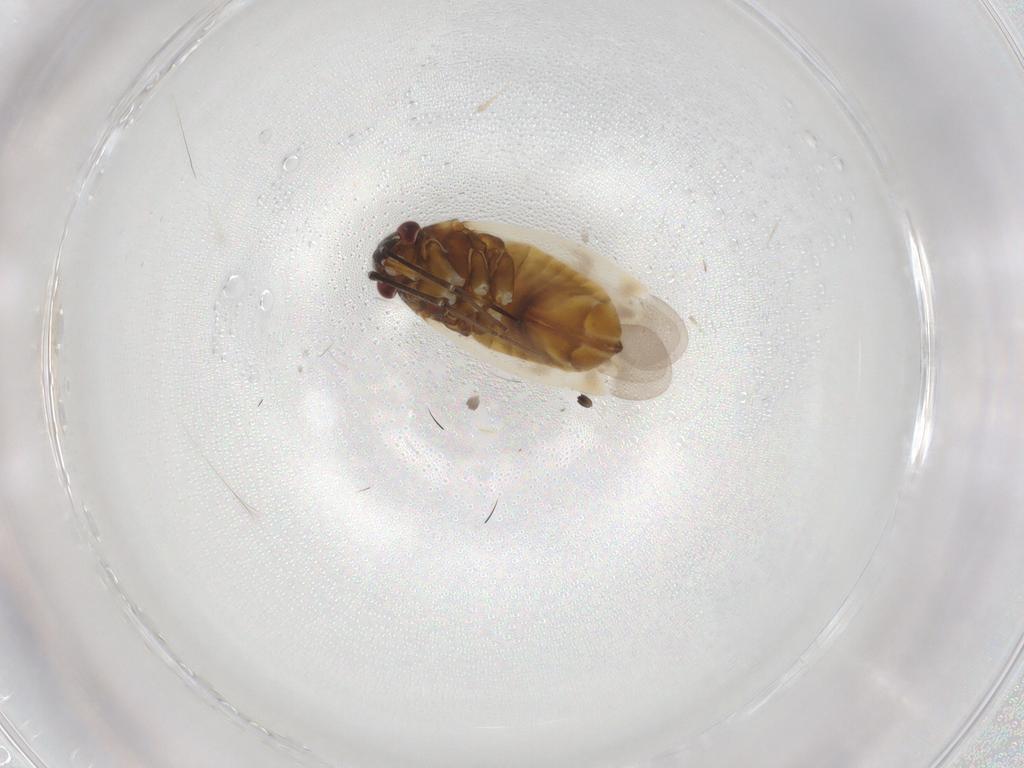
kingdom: Animalia
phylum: Arthropoda
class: Insecta
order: Hemiptera
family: Miridae
